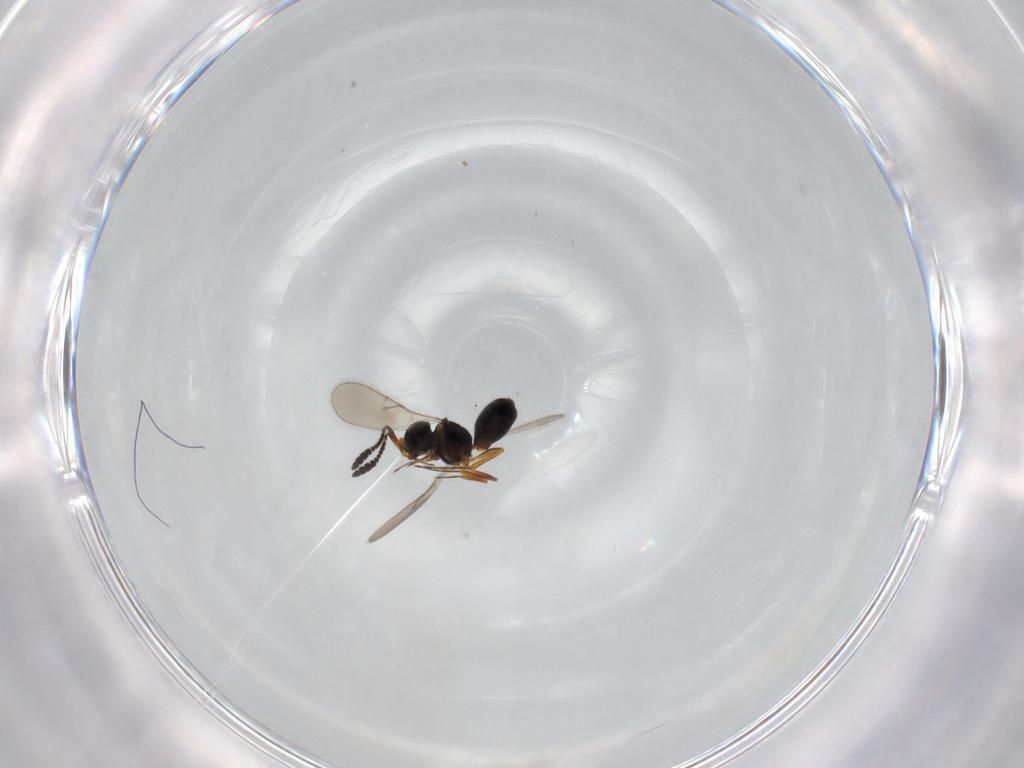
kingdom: Animalia
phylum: Arthropoda
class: Insecta
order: Hymenoptera
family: Scelionidae
